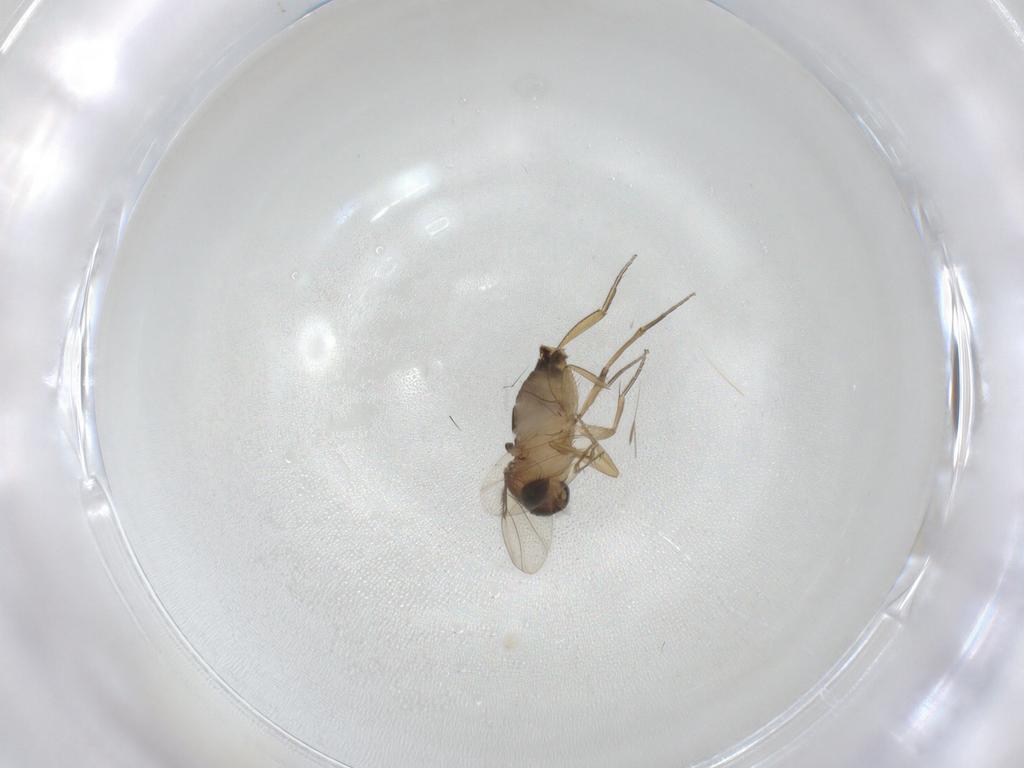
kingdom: Animalia
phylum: Arthropoda
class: Insecta
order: Diptera
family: Phoridae
